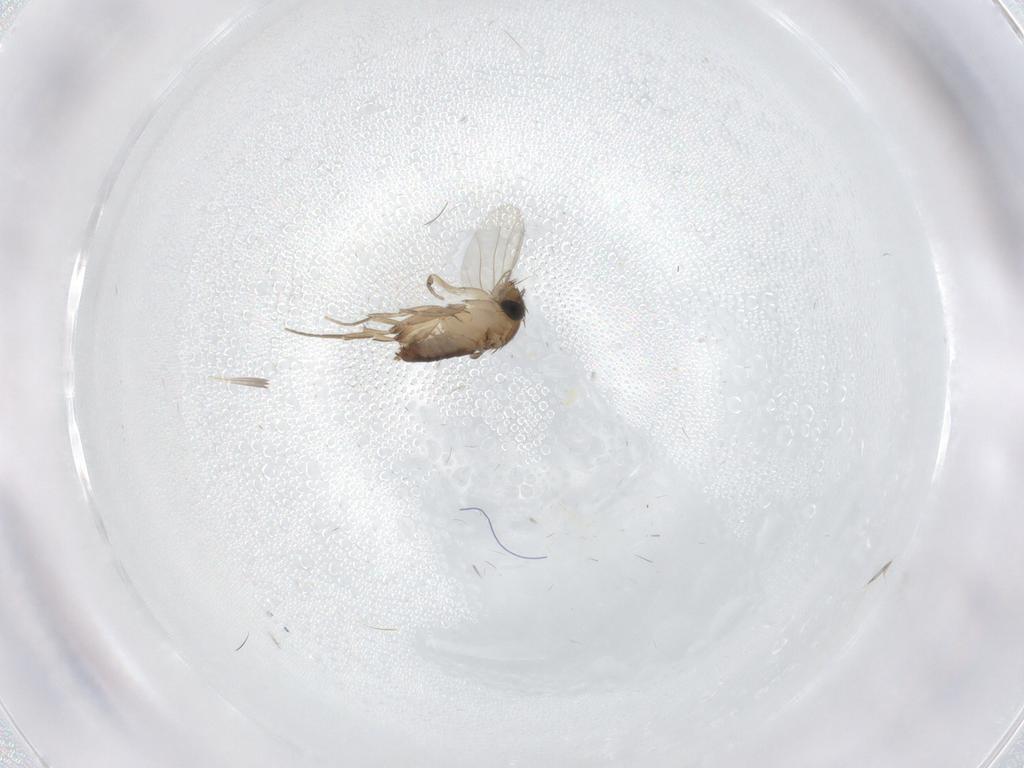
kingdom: Animalia
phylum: Arthropoda
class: Insecta
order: Diptera
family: Phoridae
